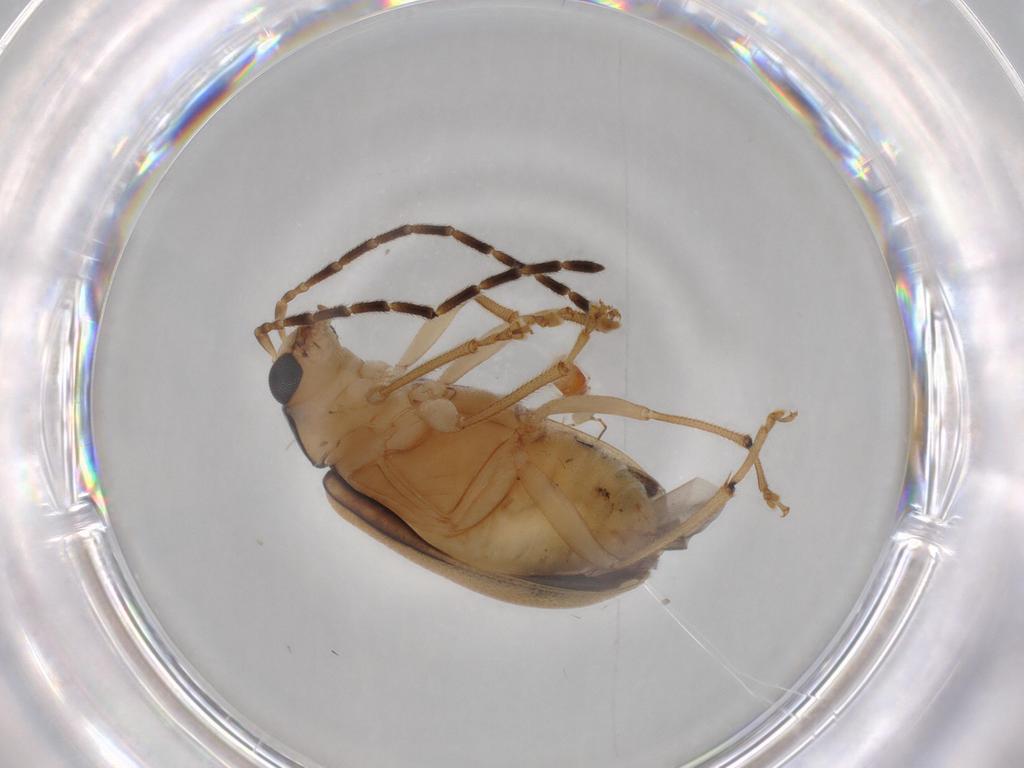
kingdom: Animalia
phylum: Arthropoda
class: Insecta
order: Coleoptera
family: Chrysomelidae
